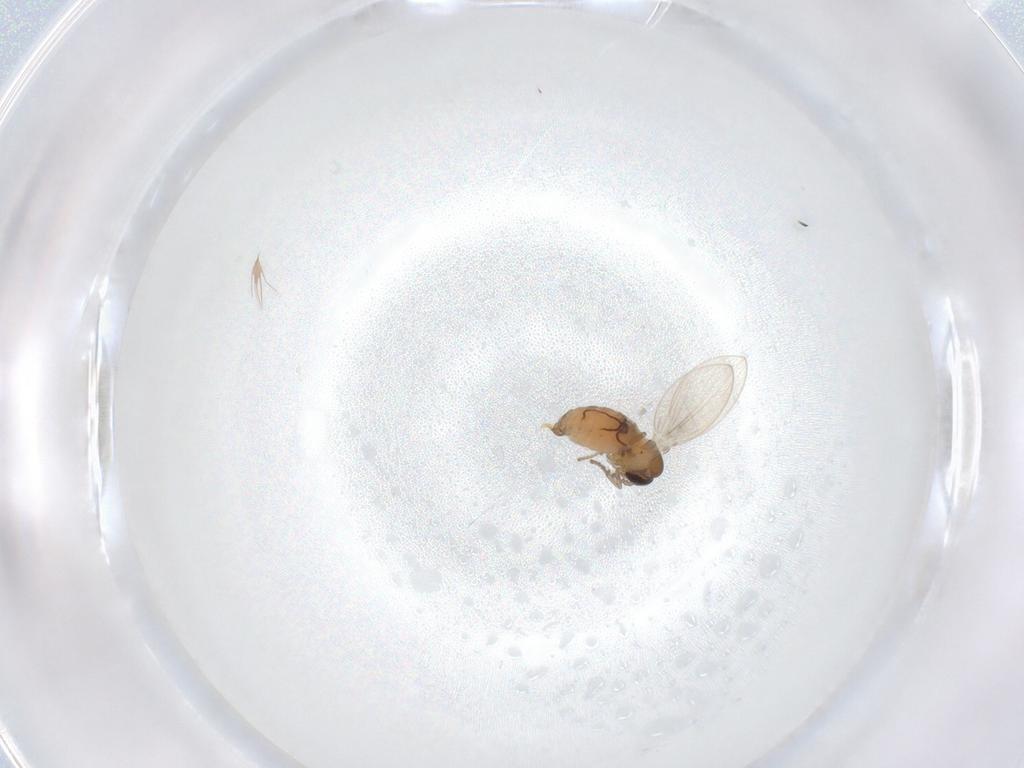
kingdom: Animalia
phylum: Arthropoda
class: Insecta
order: Diptera
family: Psychodidae
